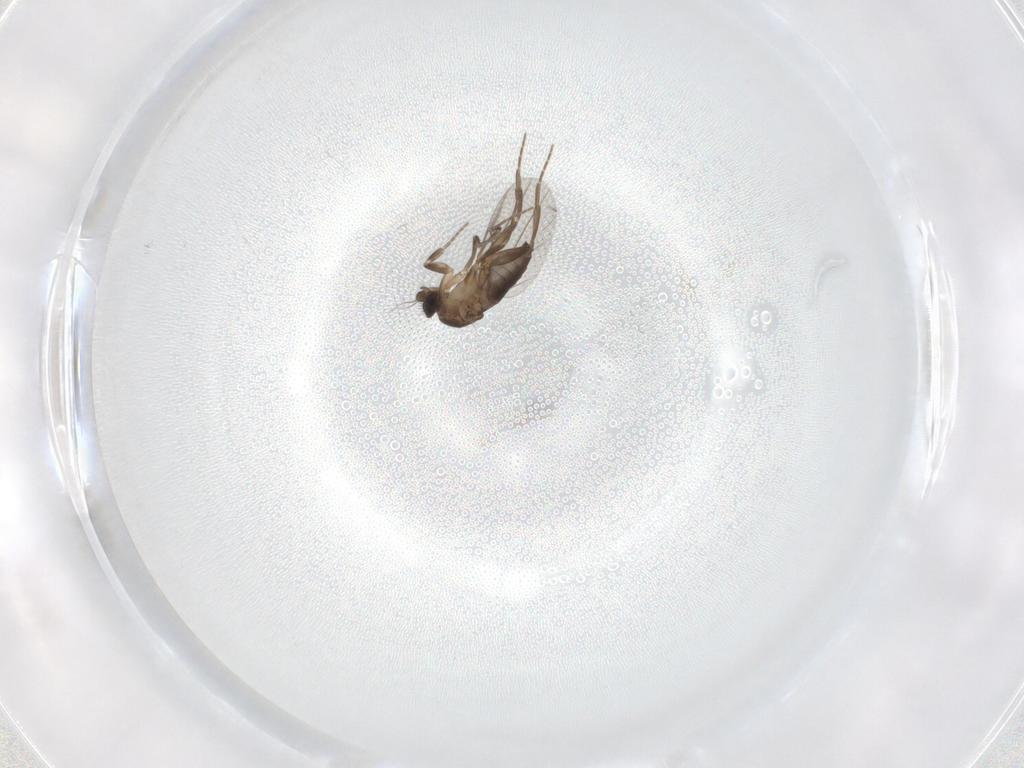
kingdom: Animalia
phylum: Arthropoda
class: Insecta
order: Diptera
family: Phoridae
